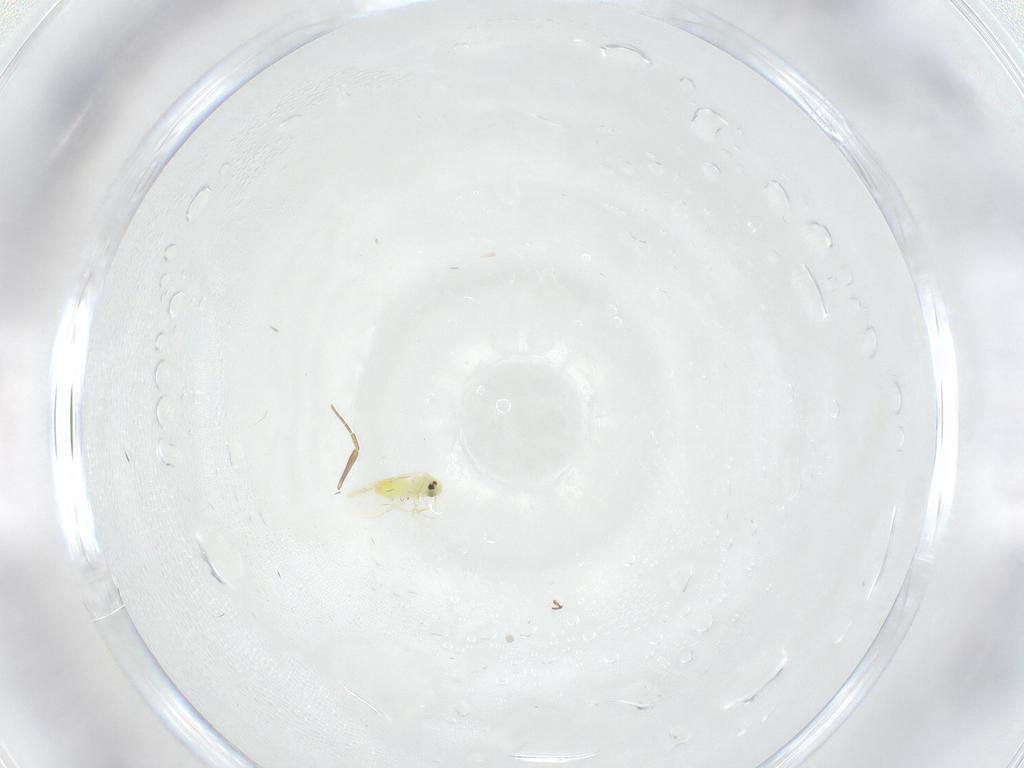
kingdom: Animalia
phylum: Arthropoda
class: Insecta
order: Hemiptera
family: Aleyrodidae
